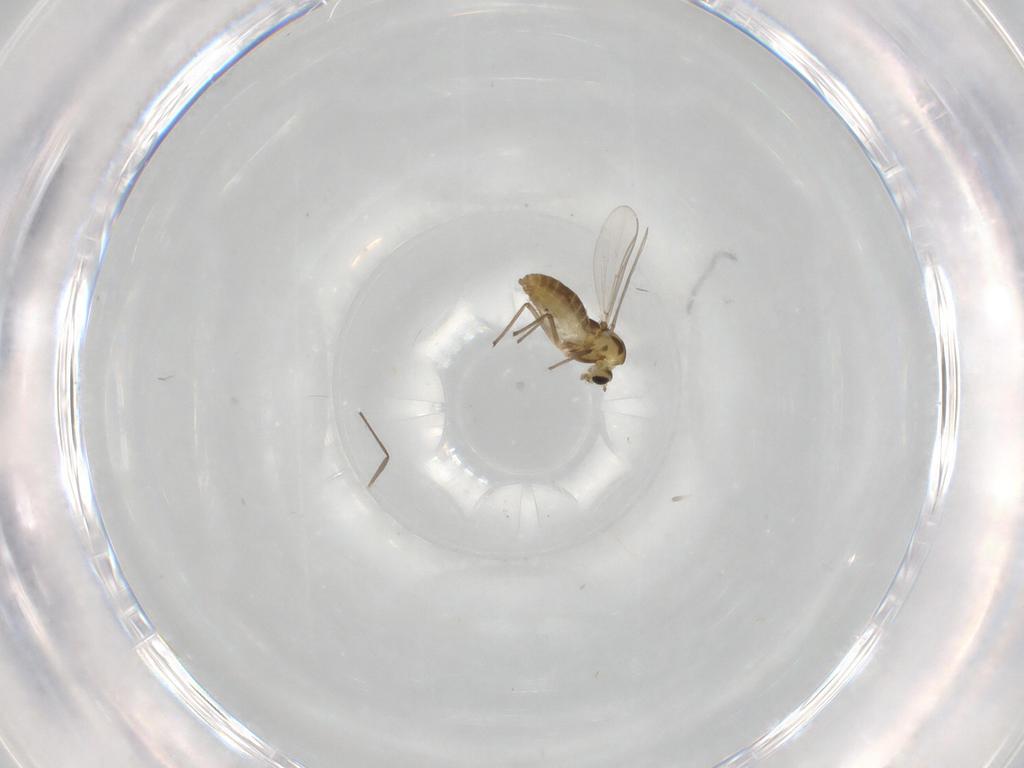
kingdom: Animalia
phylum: Arthropoda
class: Insecta
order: Diptera
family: Chironomidae
